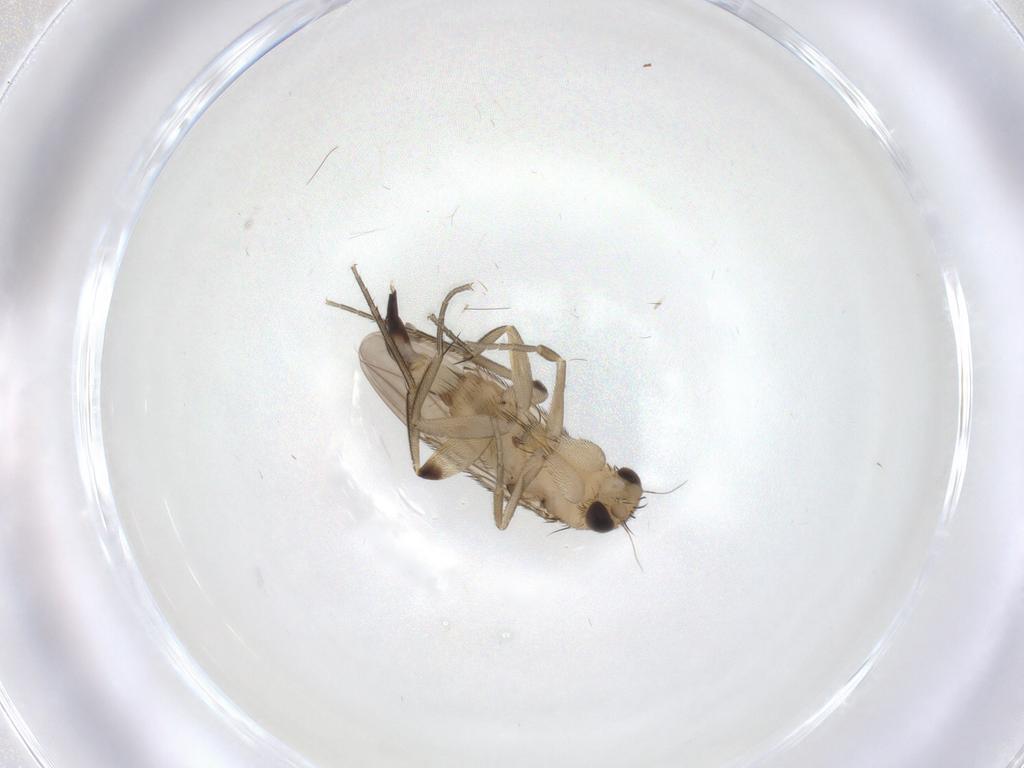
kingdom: Animalia
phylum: Arthropoda
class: Insecta
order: Diptera
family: Phoridae
